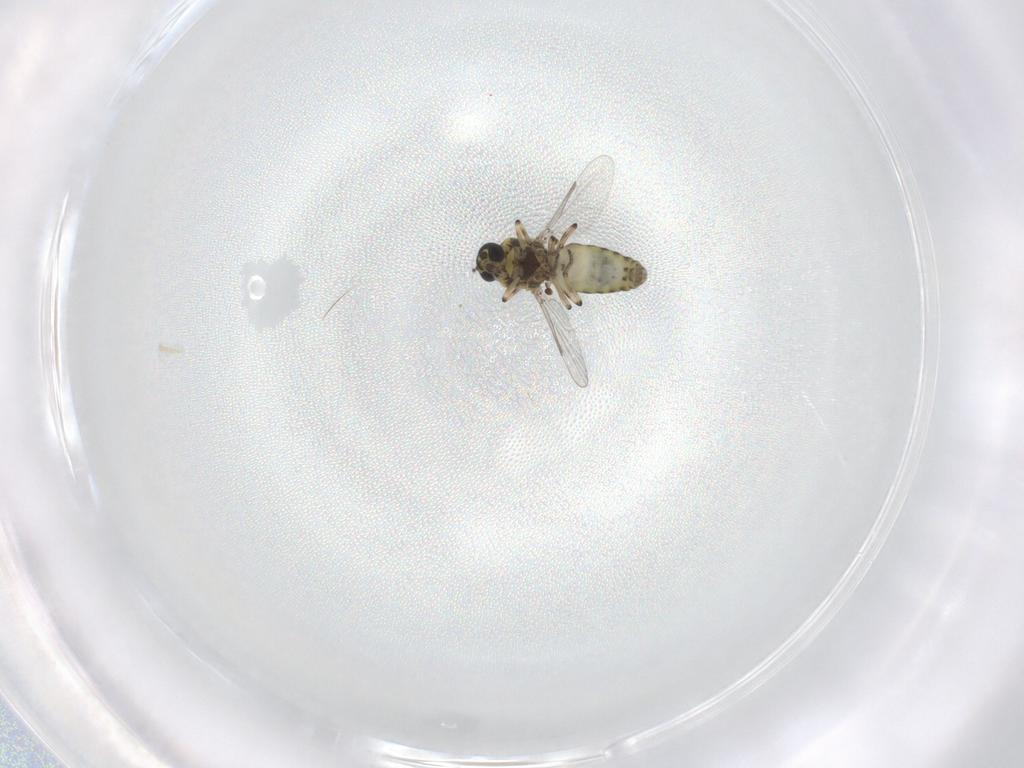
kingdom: Animalia
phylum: Arthropoda
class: Insecta
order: Diptera
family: Ceratopogonidae
